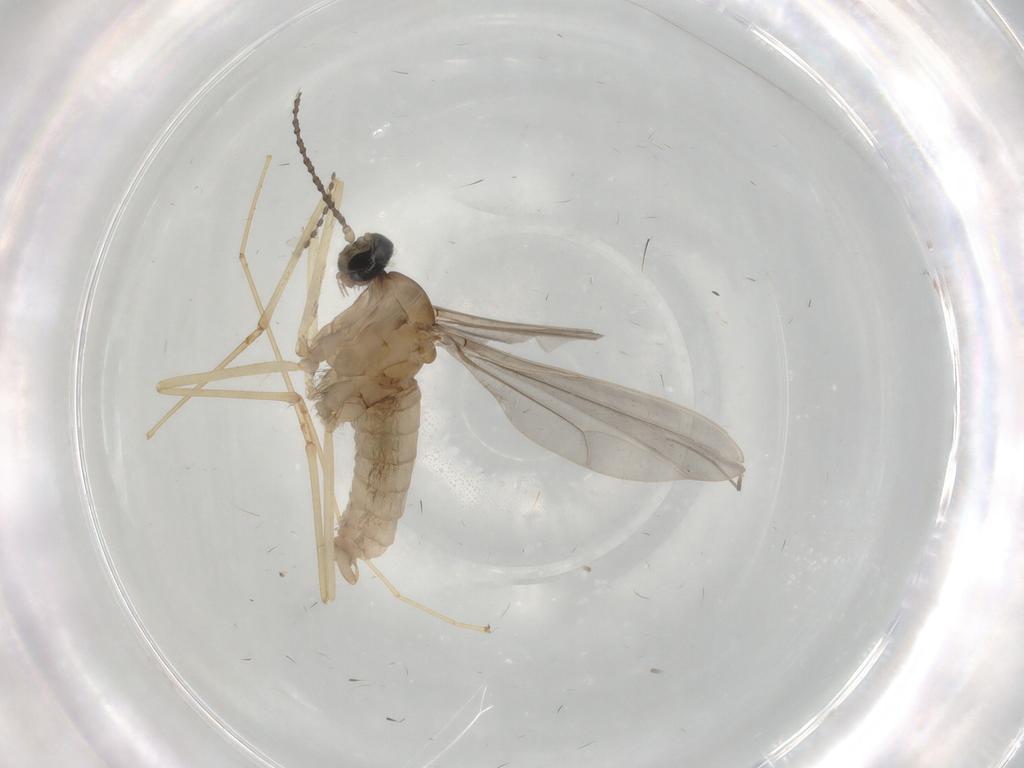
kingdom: Animalia
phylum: Arthropoda
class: Insecta
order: Diptera
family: Cecidomyiidae
